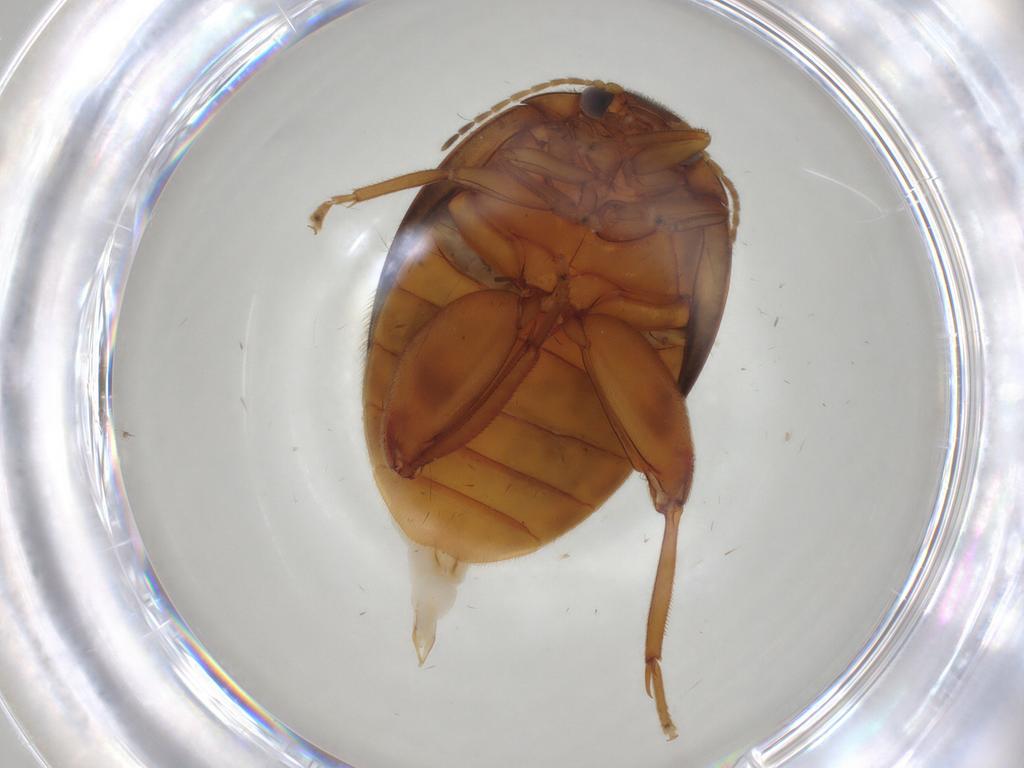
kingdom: Animalia
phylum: Arthropoda
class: Insecta
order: Coleoptera
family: Scirtidae
